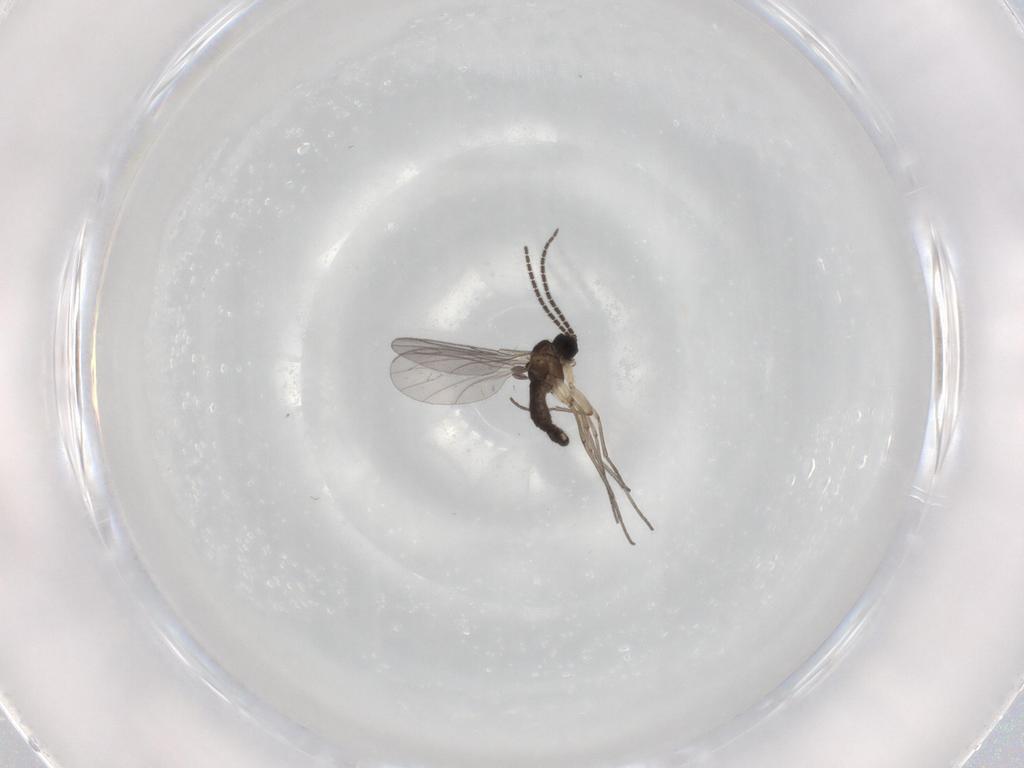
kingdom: Animalia
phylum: Arthropoda
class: Insecta
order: Diptera
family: Sciaridae
